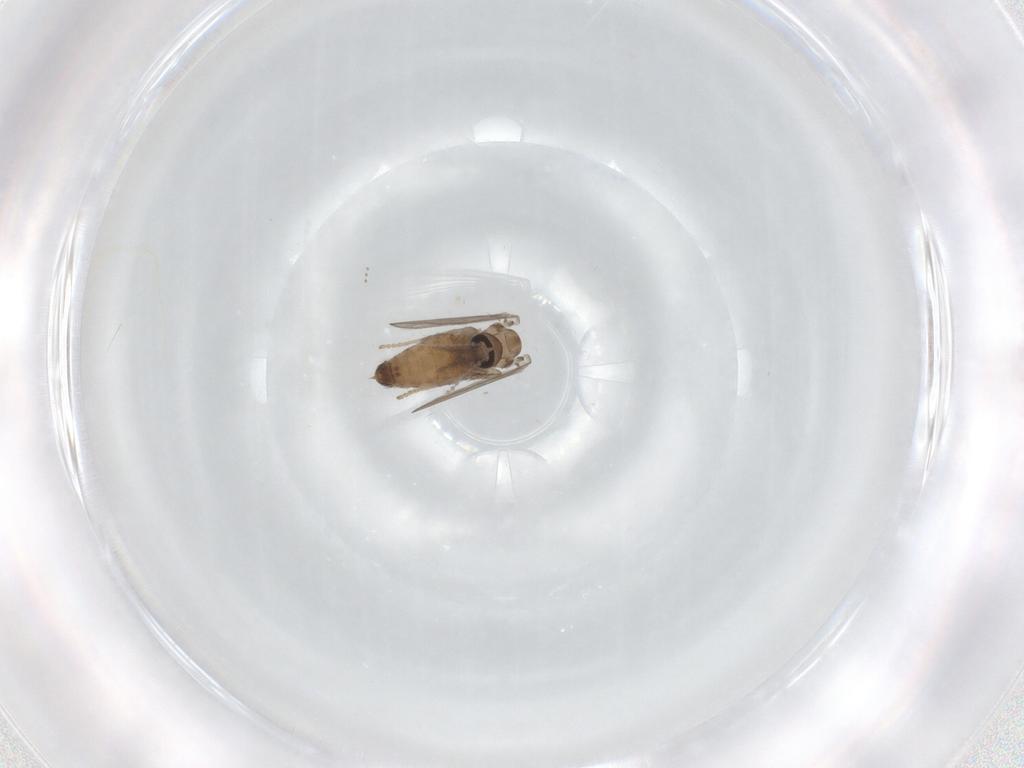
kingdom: Animalia
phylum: Arthropoda
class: Insecta
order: Diptera
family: Psychodidae
